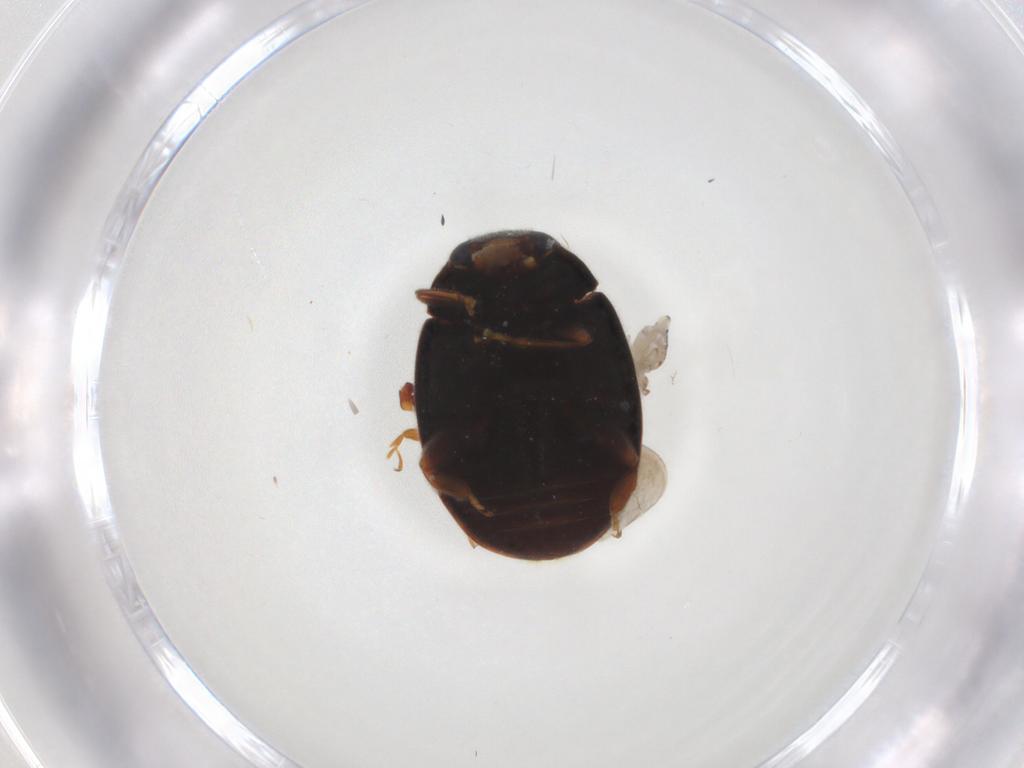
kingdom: Animalia
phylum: Arthropoda
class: Insecta
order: Coleoptera
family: Coccinellidae
